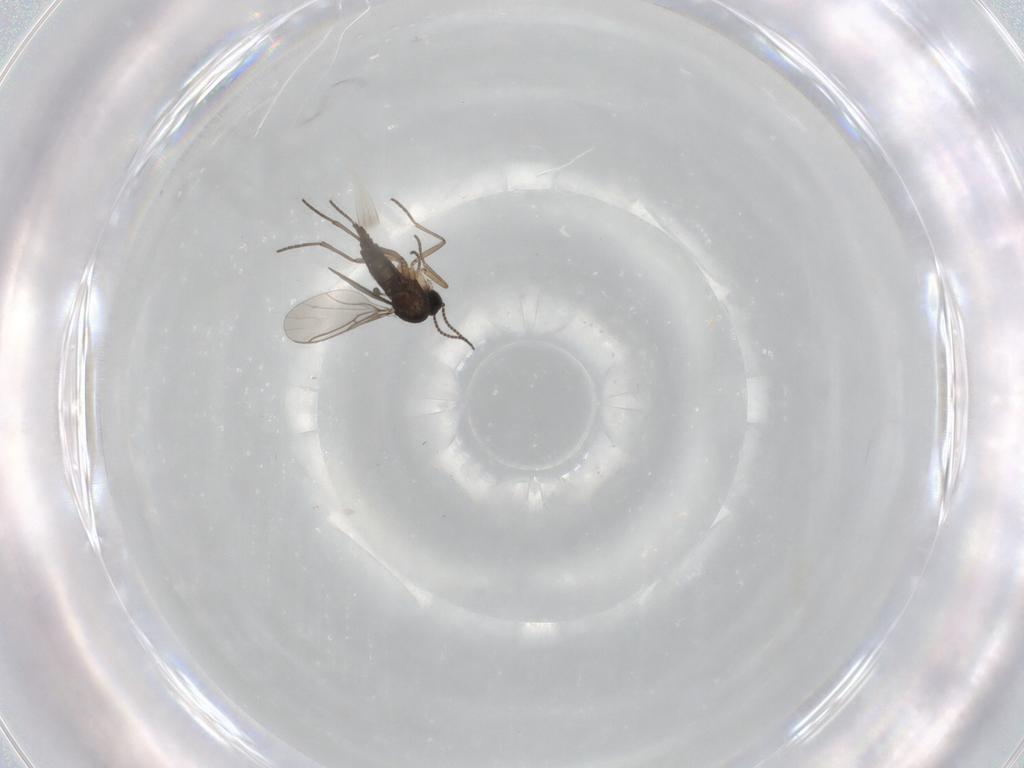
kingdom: Animalia
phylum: Arthropoda
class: Insecta
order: Diptera
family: Sciaridae
